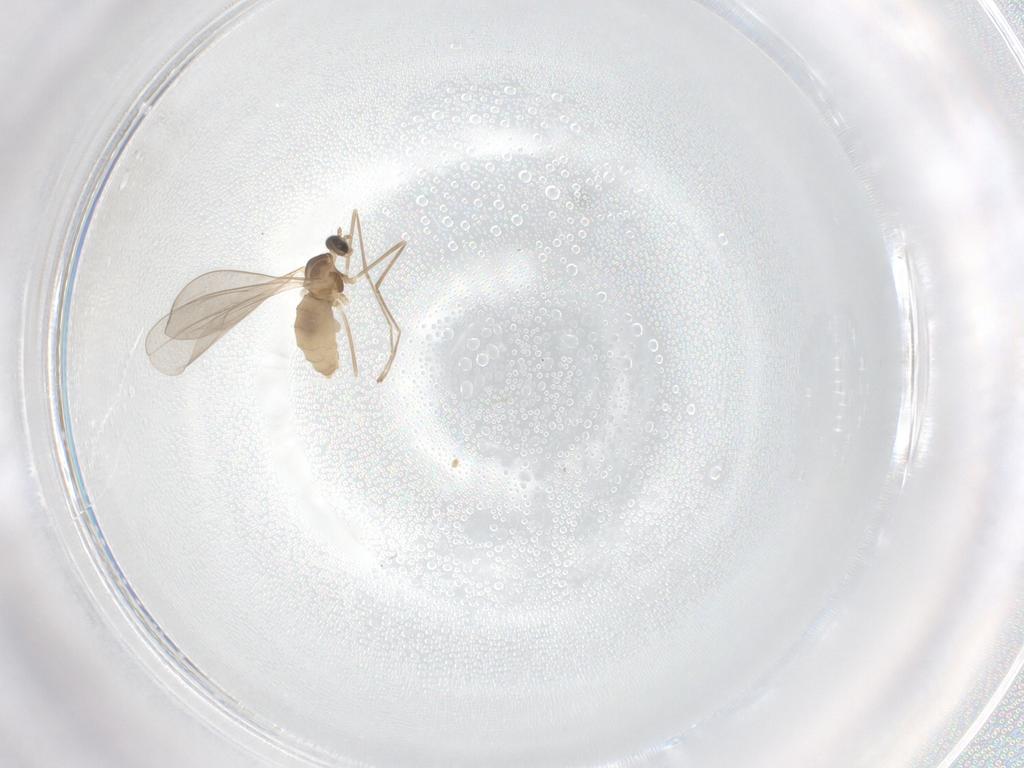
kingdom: Animalia
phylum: Arthropoda
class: Insecta
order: Diptera
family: Cecidomyiidae
